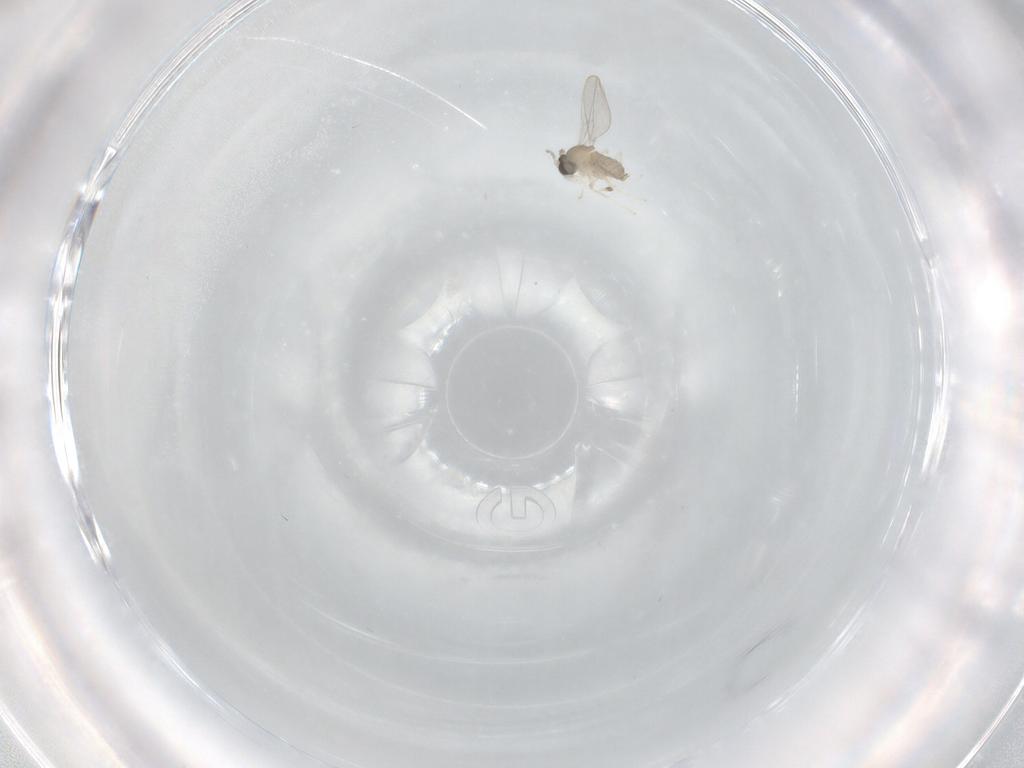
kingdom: Animalia
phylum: Arthropoda
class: Insecta
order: Diptera
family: Cecidomyiidae
